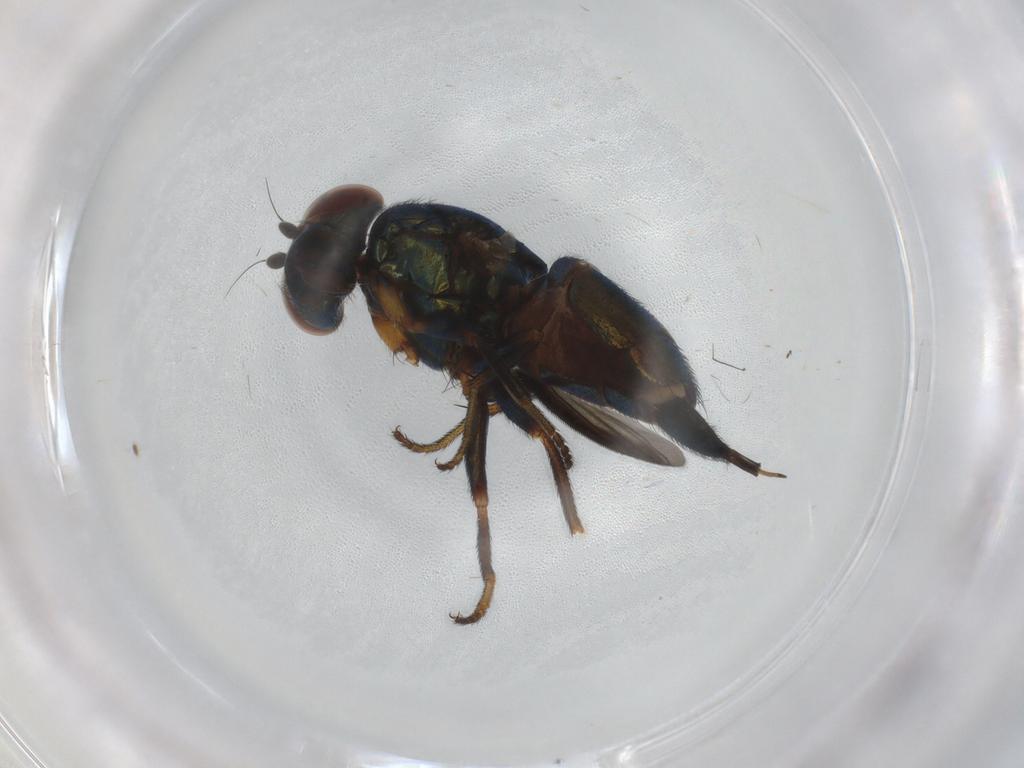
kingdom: Animalia
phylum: Arthropoda
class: Insecta
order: Diptera
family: Ulidiidae
